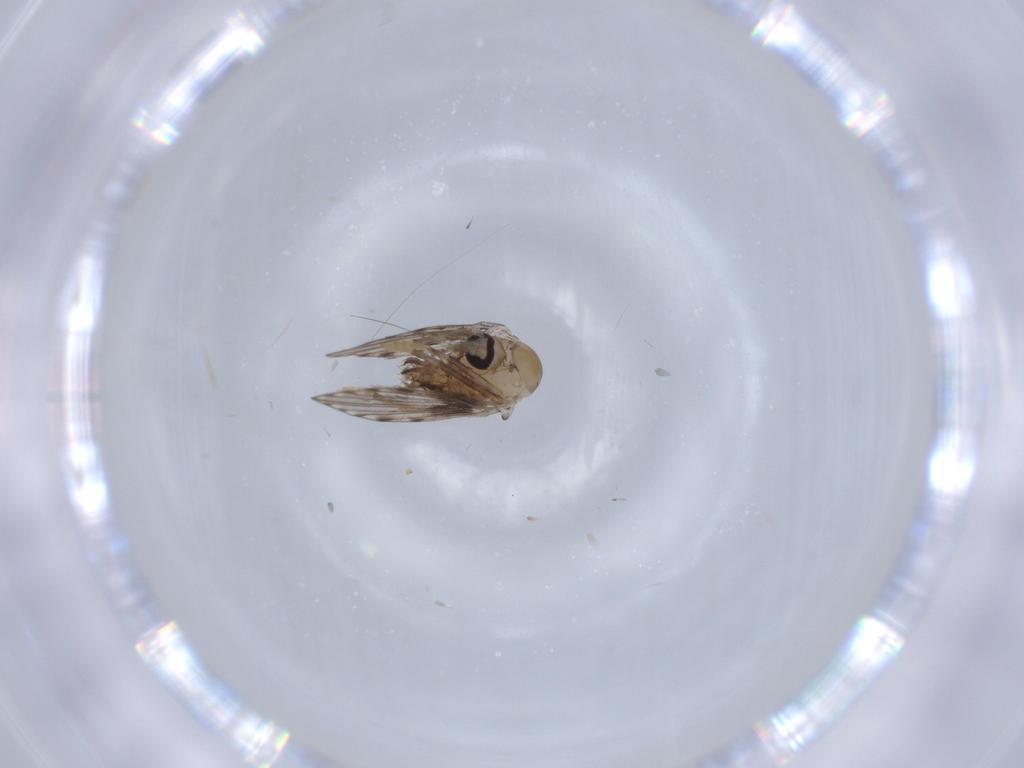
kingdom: Animalia
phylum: Arthropoda
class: Insecta
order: Diptera
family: Psychodidae
